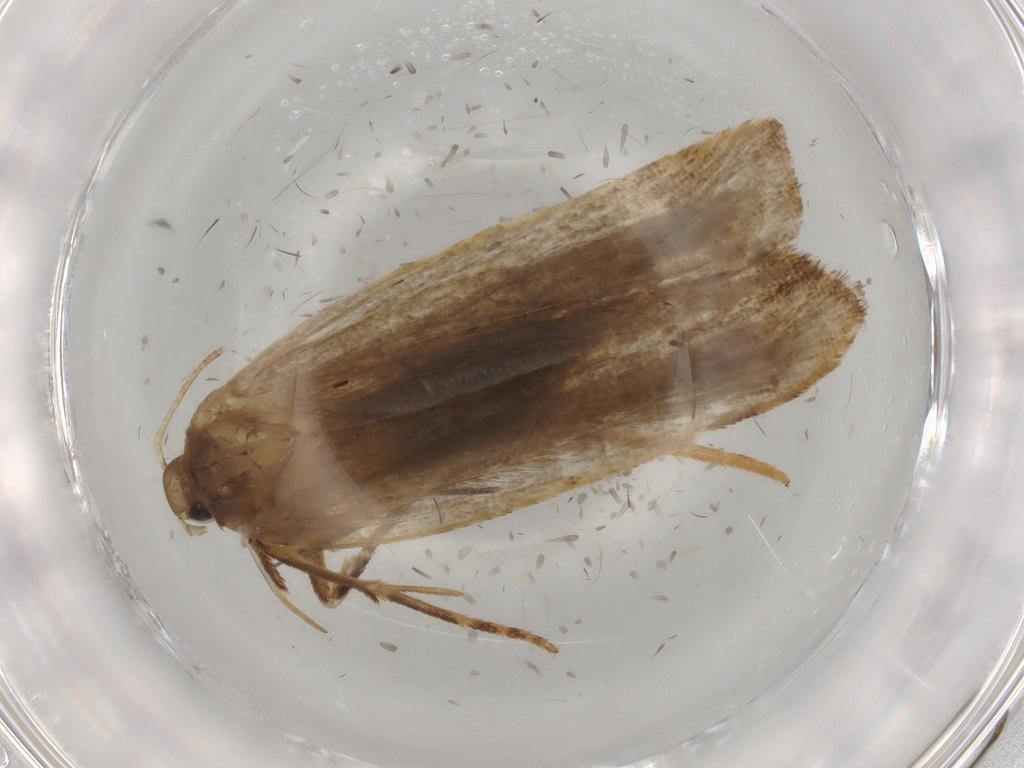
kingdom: Animalia
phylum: Arthropoda
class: Insecta
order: Lepidoptera
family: Gelechiidae
